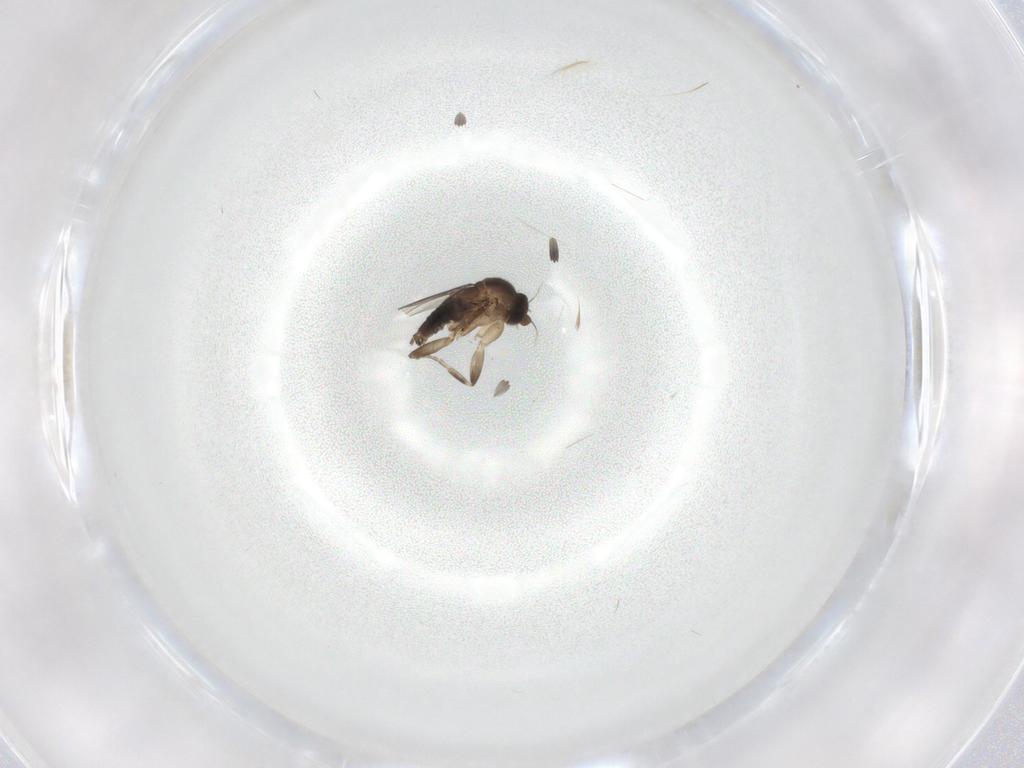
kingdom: Animalia
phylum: Arthropoda
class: Insecta
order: Diptera
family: Phoridae
